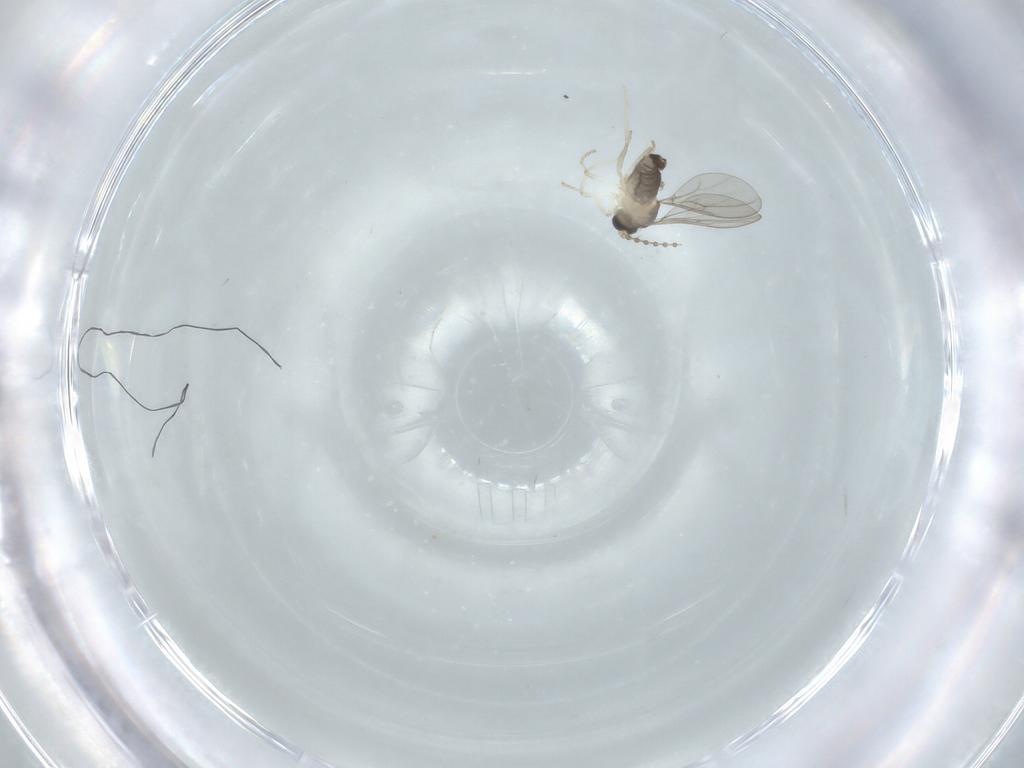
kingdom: Animalia
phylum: Arthropoda
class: Insecta
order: Diptera
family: Cecidomyiidae
